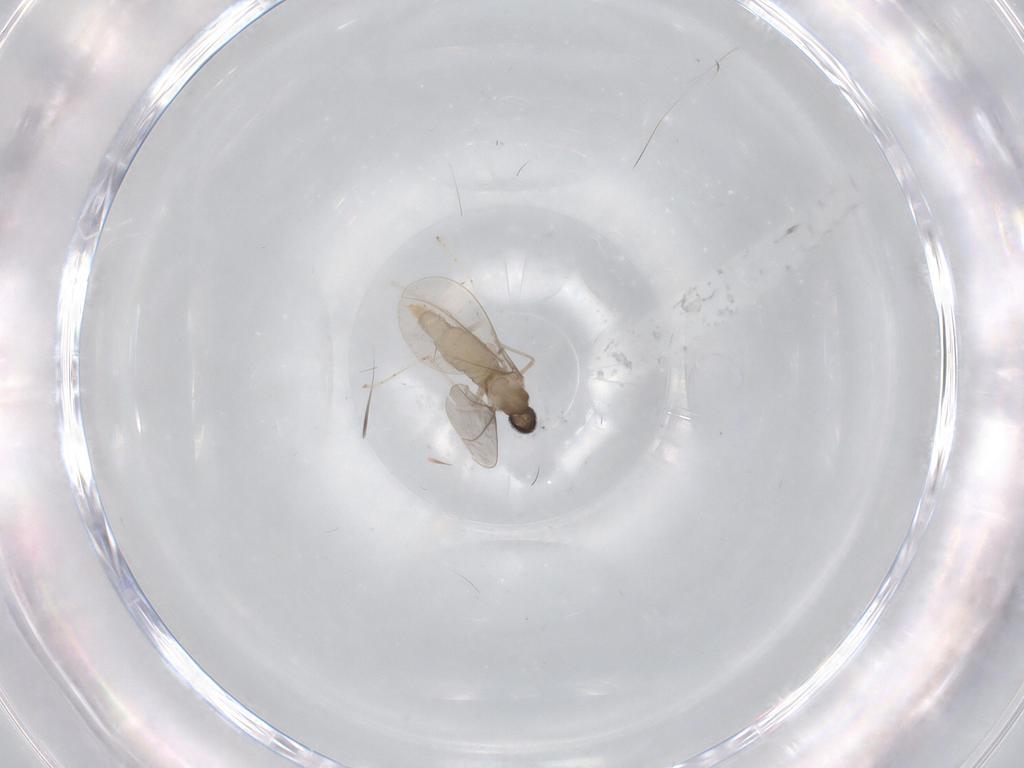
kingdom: Animalia
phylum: Arthropoda
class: Insecta
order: Diptera
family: Cecidomyiidae
